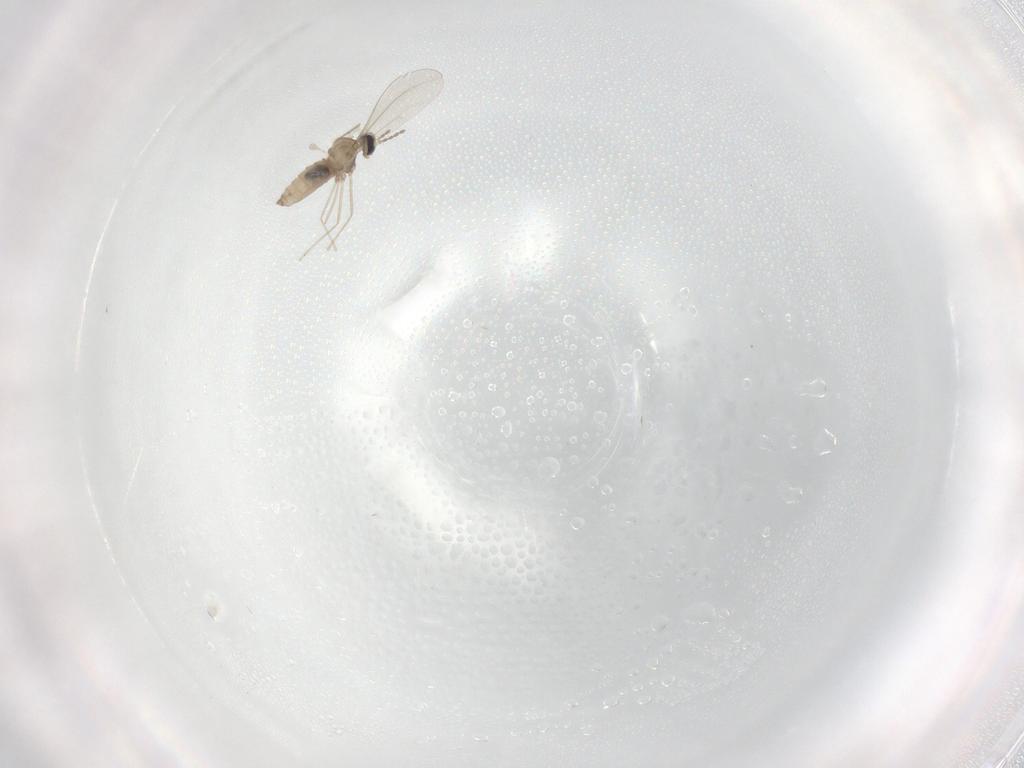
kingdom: Animalia
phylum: Arthropoda
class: Insecta
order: Diptera
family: Cecidomyiidae
